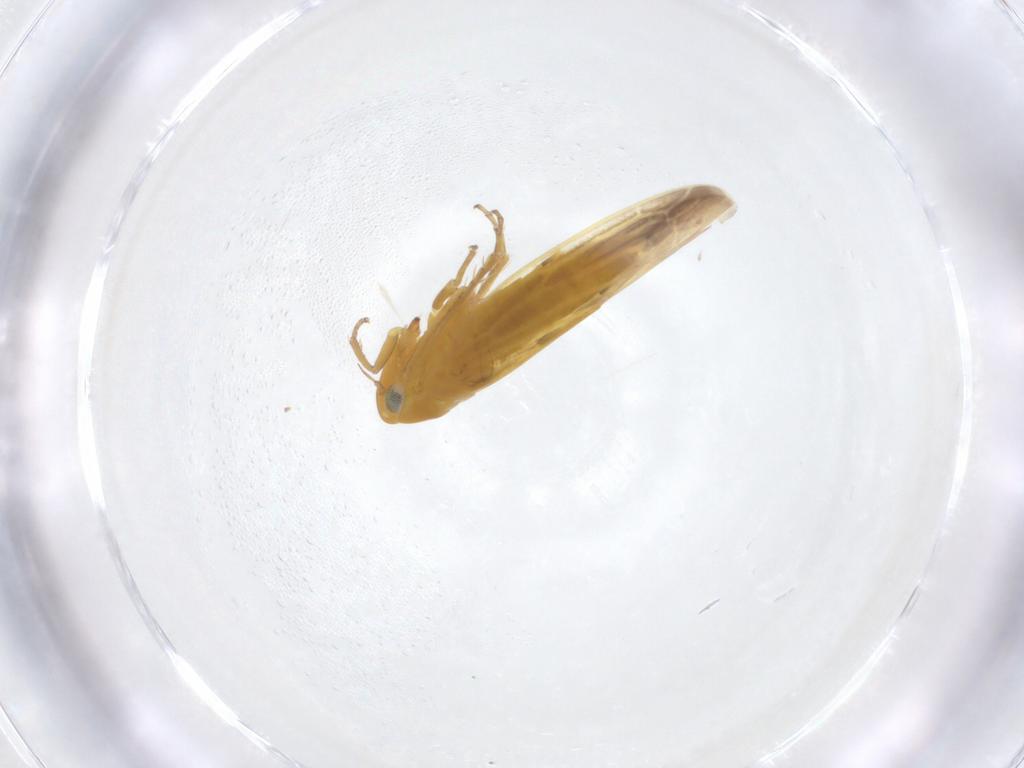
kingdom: Animalia
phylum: Arthropoda
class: Insecta
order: Hemiptera
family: Cicadellidae
